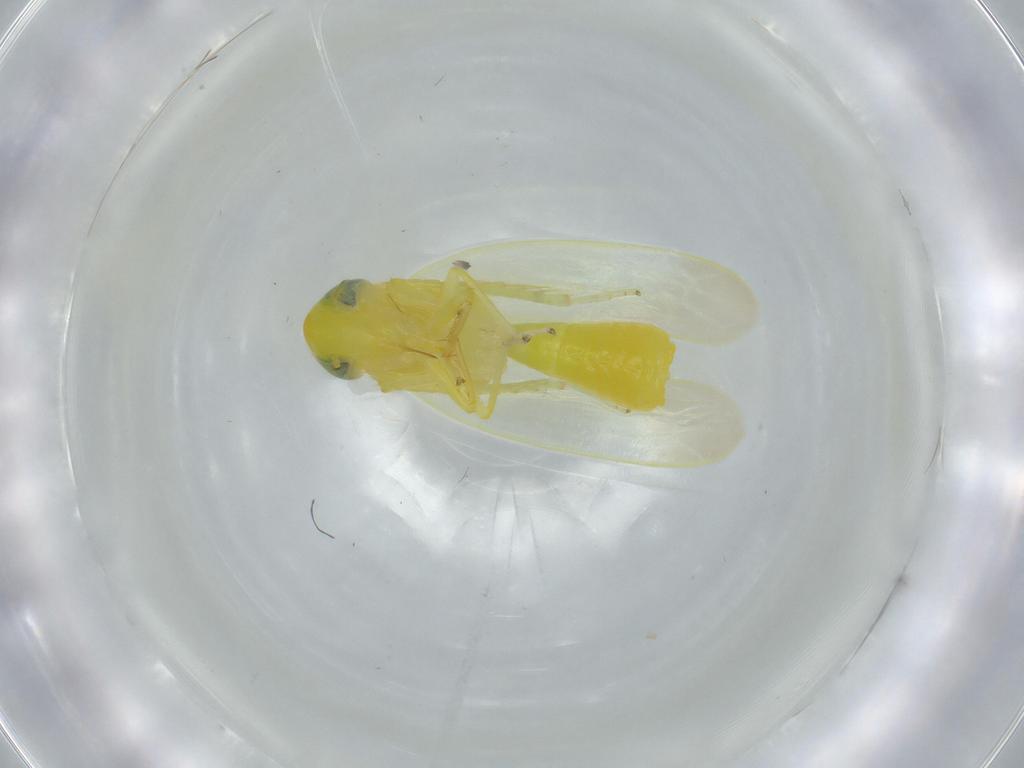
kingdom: Animalia
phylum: Arthropoda
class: Insecta
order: Hemiptera
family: Cicadellidae
